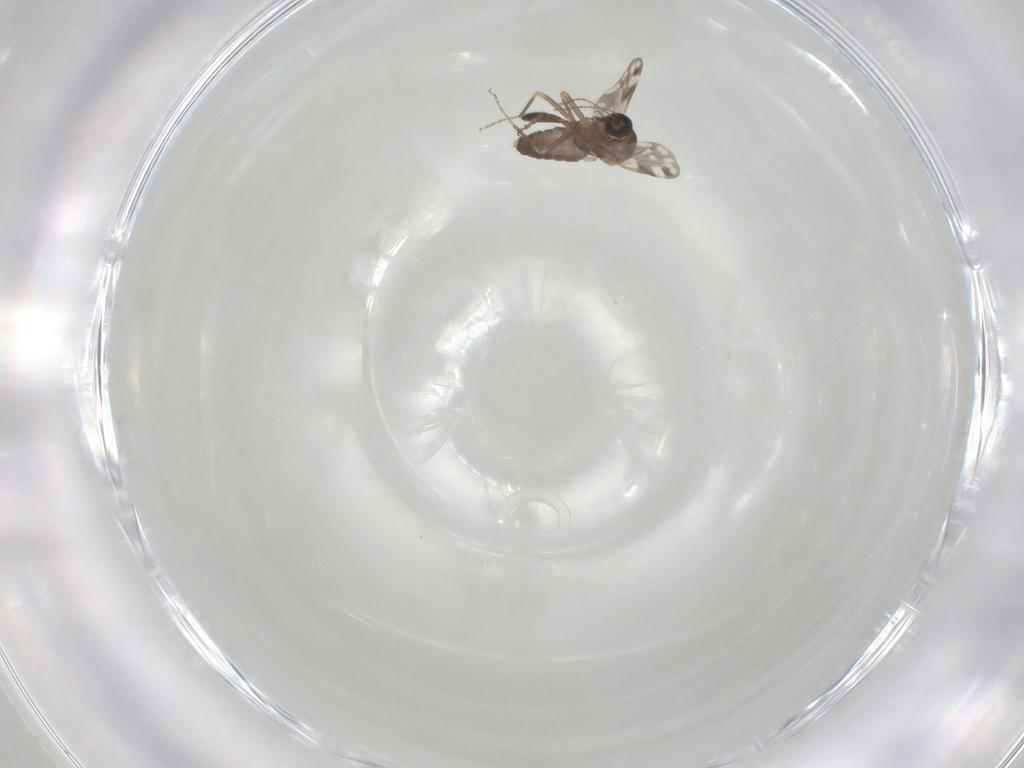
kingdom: Animalia
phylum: Arthropoda
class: Insecta
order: Diptera
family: Ceratopogonidae
